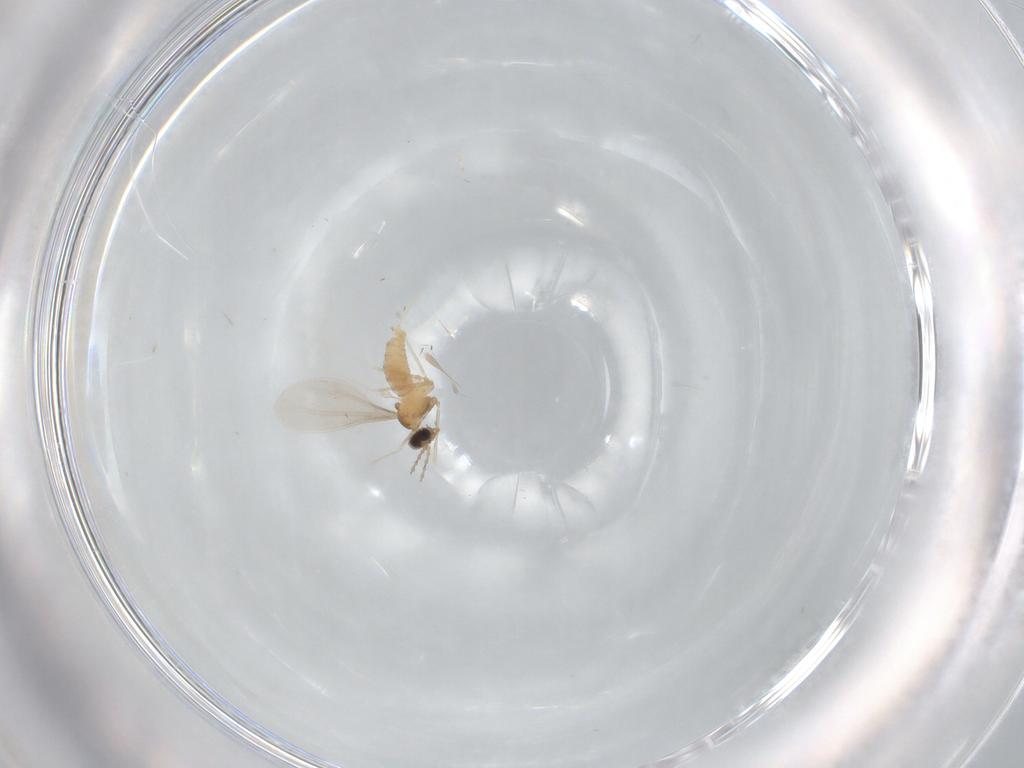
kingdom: Animalia
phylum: Arthropoda
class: Insecta
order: Diptera
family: Cecidomyiidae
